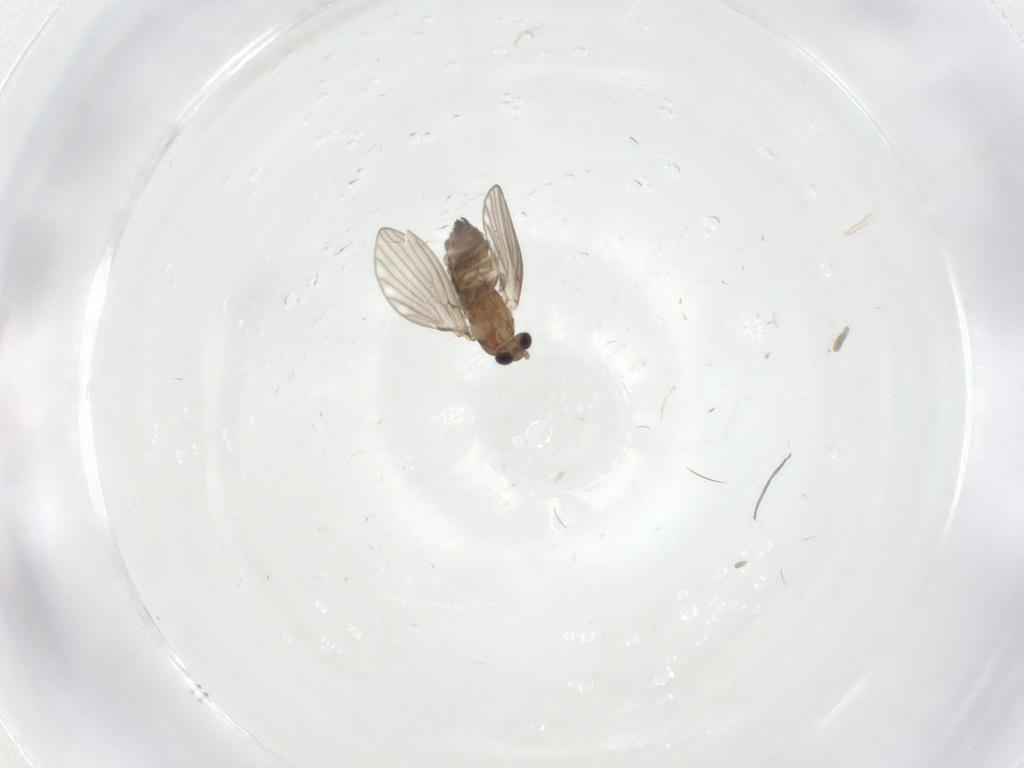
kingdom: Animalia
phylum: Arthropoda
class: Insecta
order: Diptera
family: Psychodidae
